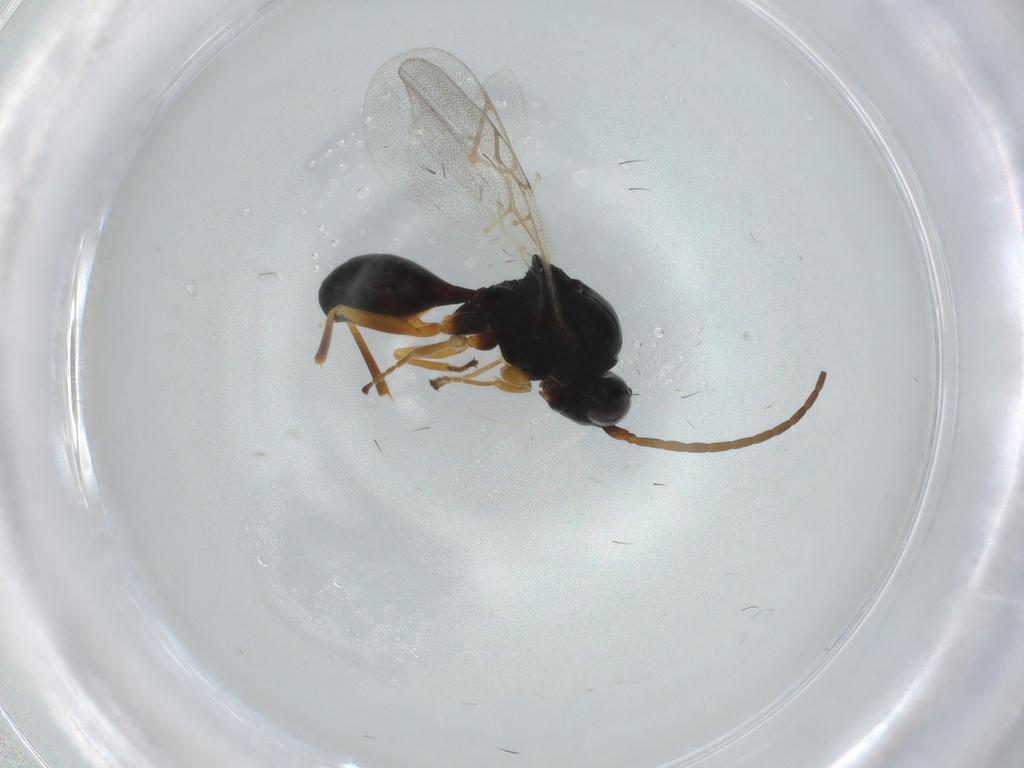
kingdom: Animalia
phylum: Arthropoda
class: Insecta
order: Hymenoptera
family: Figitidae
